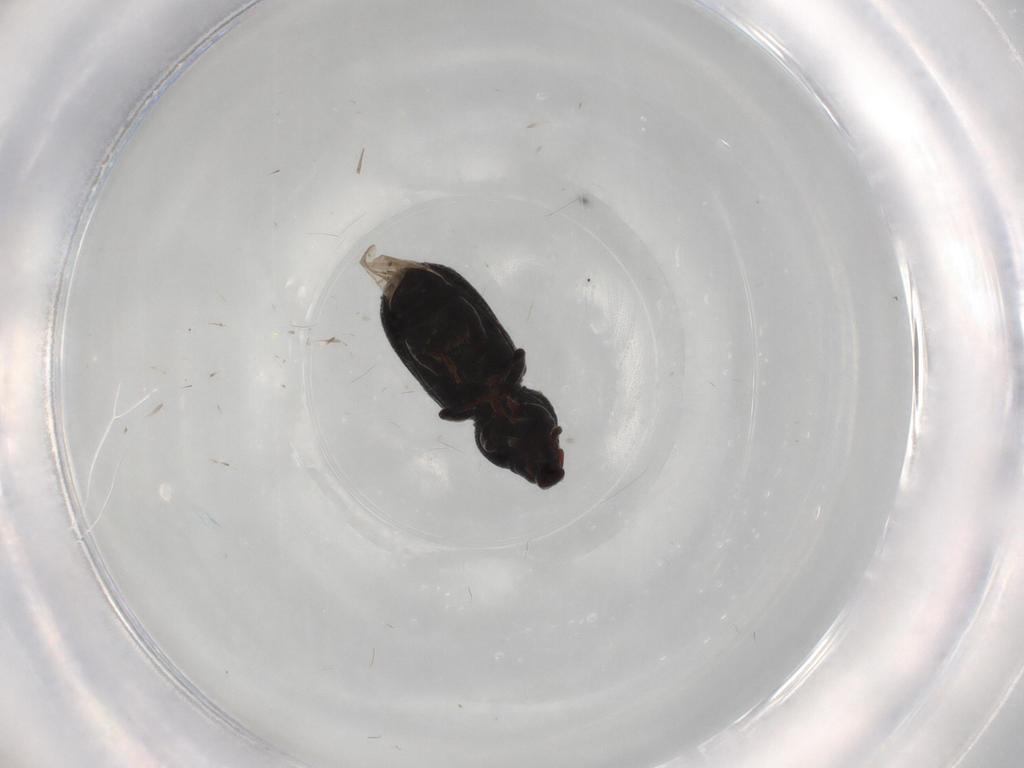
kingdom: Animalia
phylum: Arthropoda
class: Insecta
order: Coleoptera
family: Curculionidae
